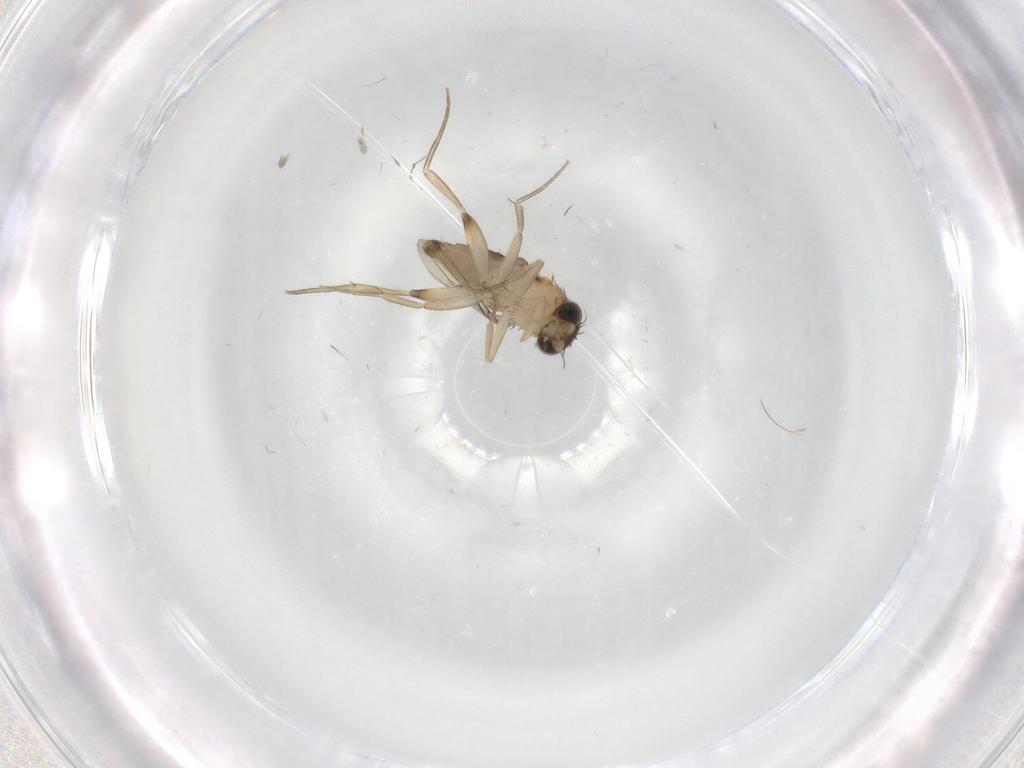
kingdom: Animalia
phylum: Arthropoda
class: Insecta
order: Diptera
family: Phoridae
